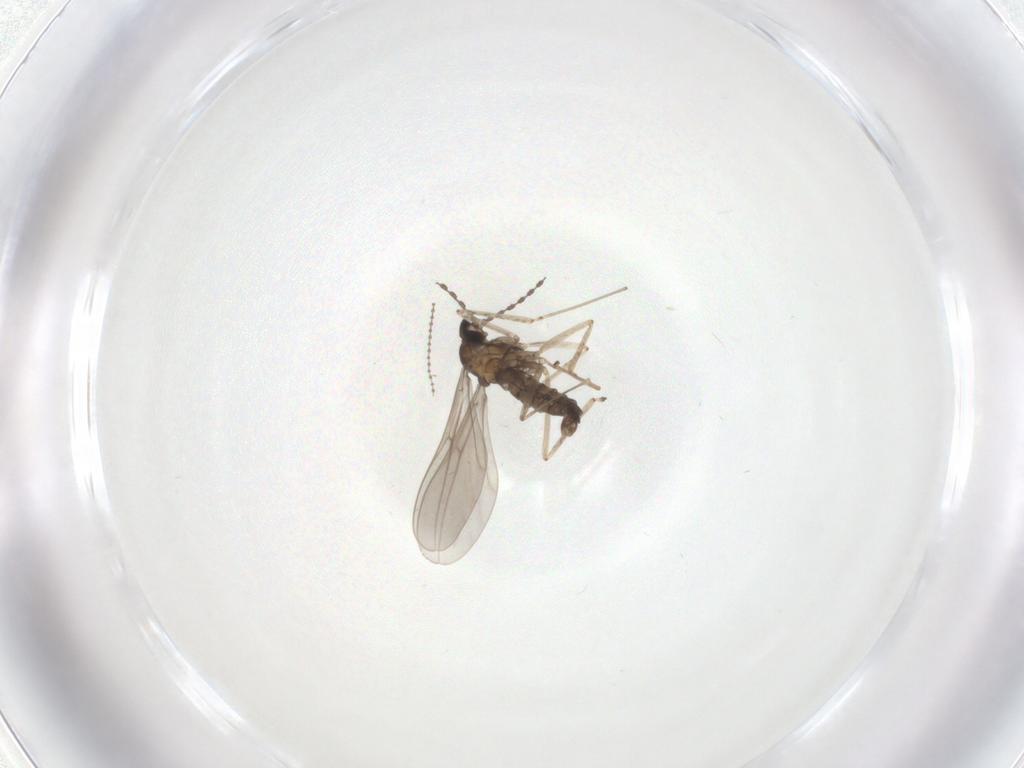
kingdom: Animalia
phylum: Arthropoda
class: Insecta
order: Diptera
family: Cecidomyiidae
